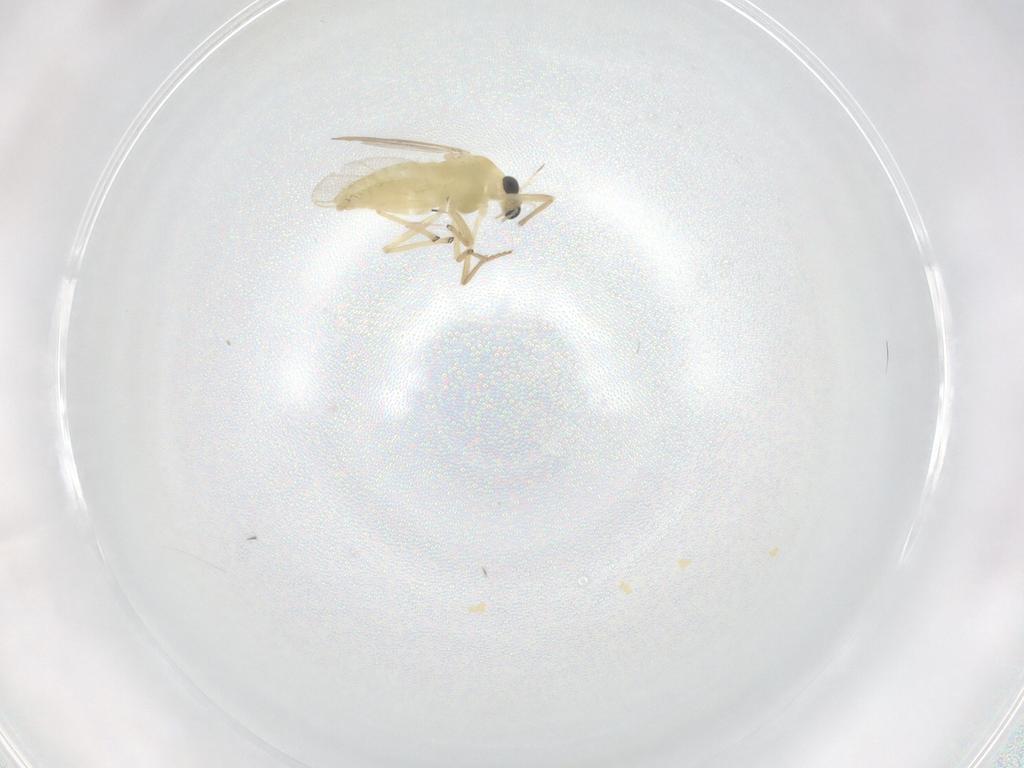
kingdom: Animalia
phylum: Arthropoda
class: Insecta
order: Diptera
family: Chironomidae
